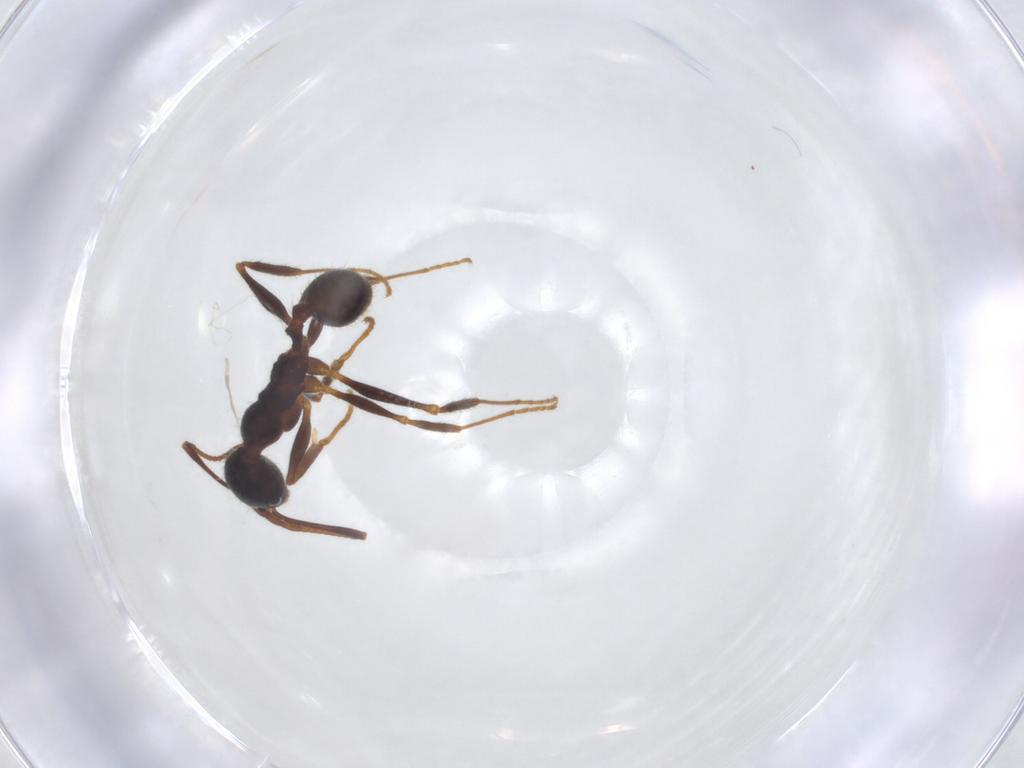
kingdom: Animalia
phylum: Arthropoda
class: Insecta
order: Hymenoptera
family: Formicidae
